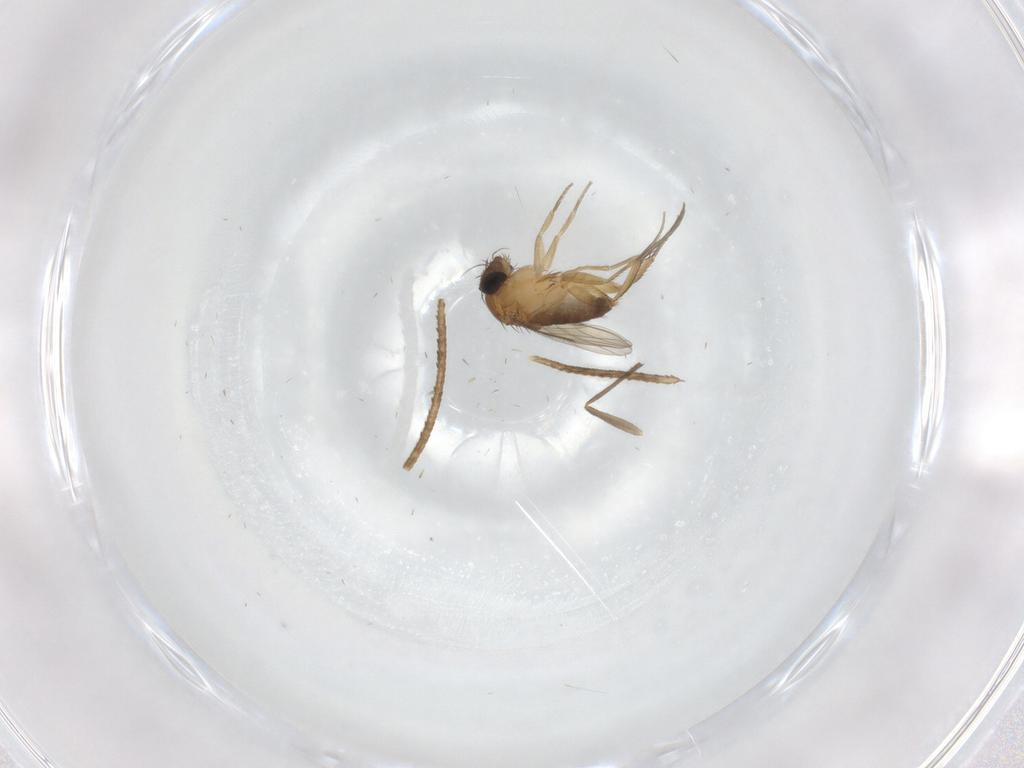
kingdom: Animalia
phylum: Arthropoda
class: Insecta
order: Diptera
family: Phoridae
